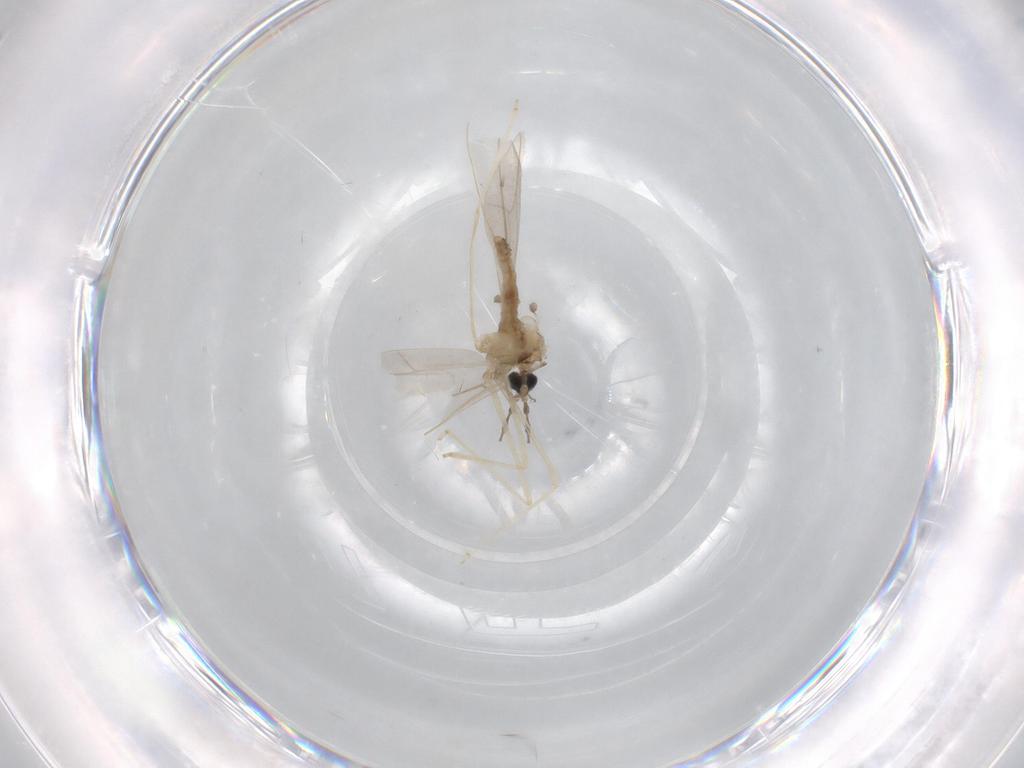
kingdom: Animalia
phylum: Arthropoda
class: Insecta
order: Diptera
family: Cecidomyiidae
